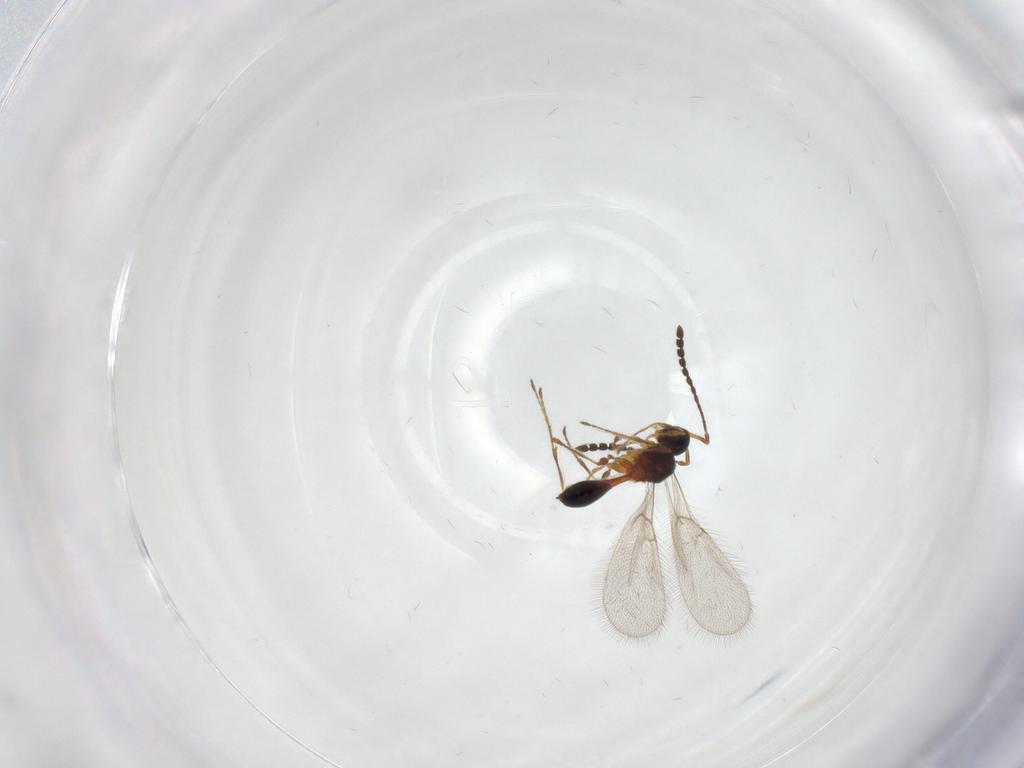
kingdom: Animalia
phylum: Arthropoda
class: Insecta
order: Hymenoptera
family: Diapriidae
